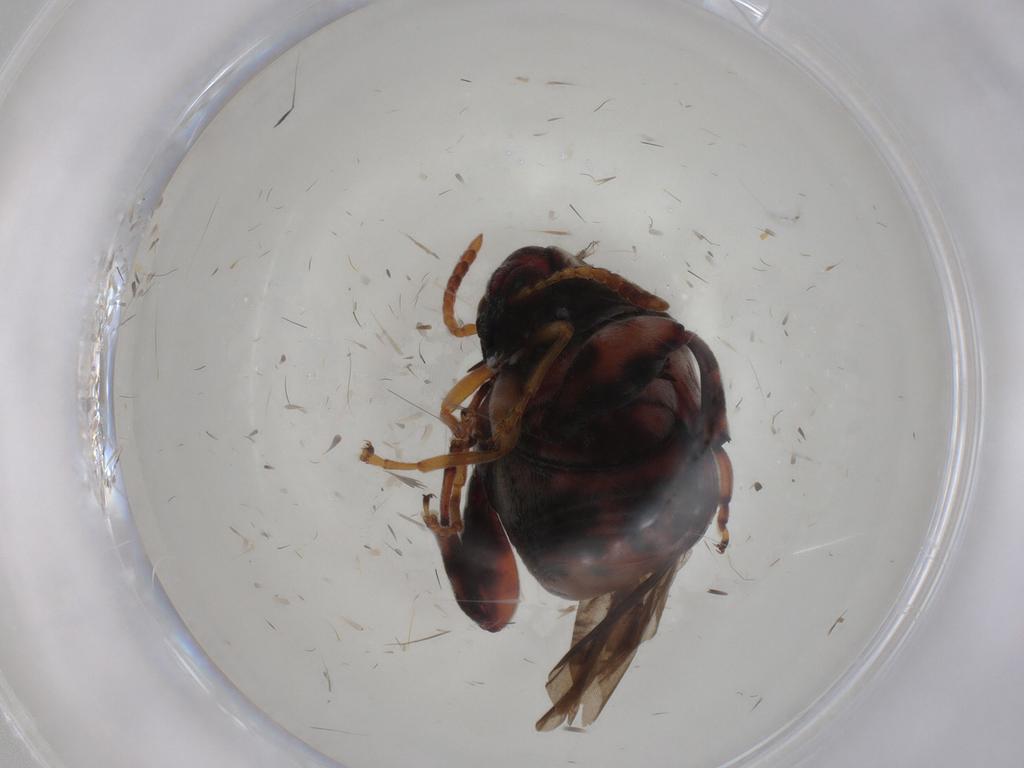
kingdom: Animalia
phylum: Arthropoda
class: Insecta
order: Coleoptera
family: Chrysomelidae
